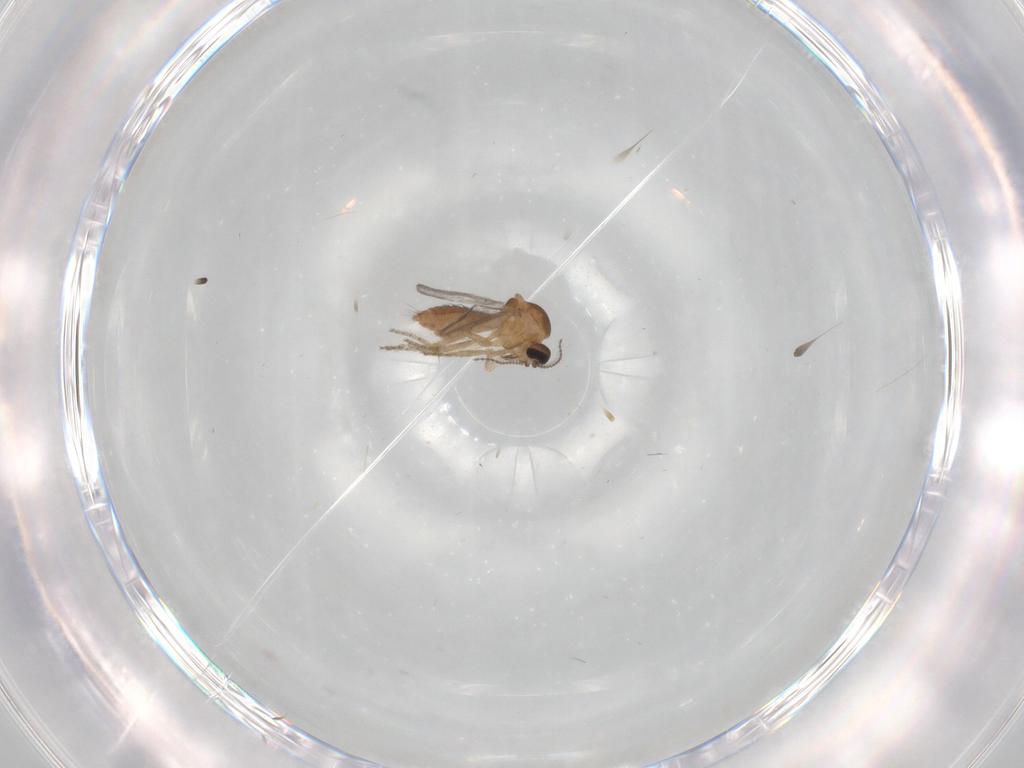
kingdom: Animalia
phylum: Arthropoda
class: Insecta
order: Diptera
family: Ceratopogonidae
